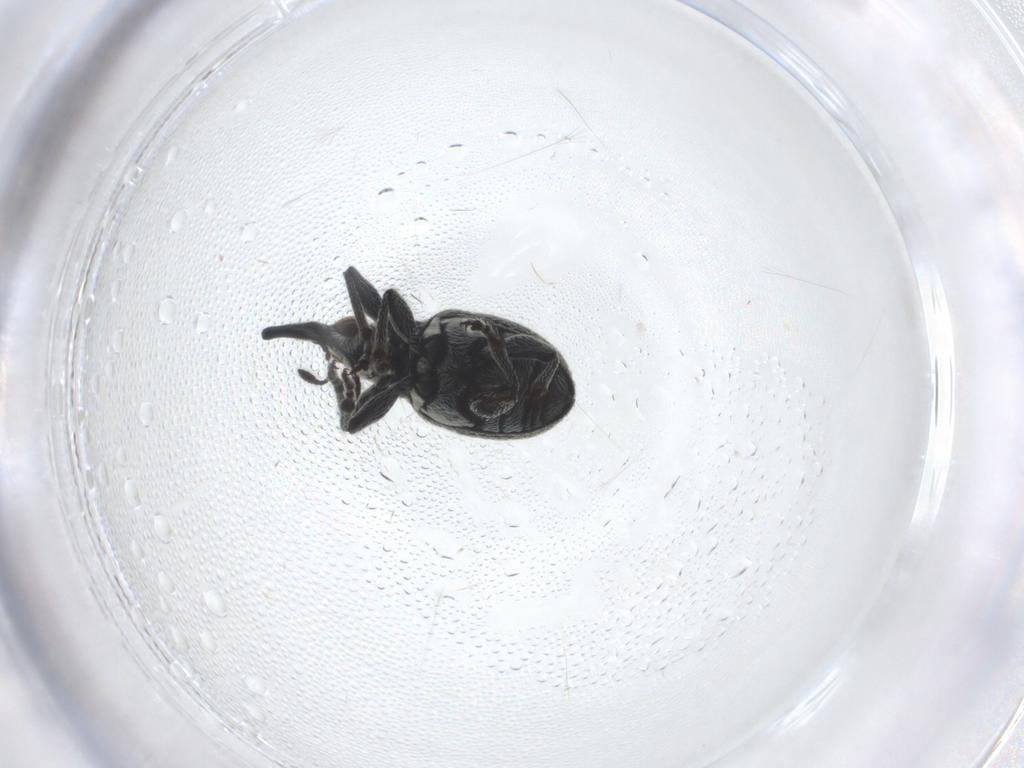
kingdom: Animalia
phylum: Arthropoda
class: Insecta
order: Coleoptera
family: Brentidae
